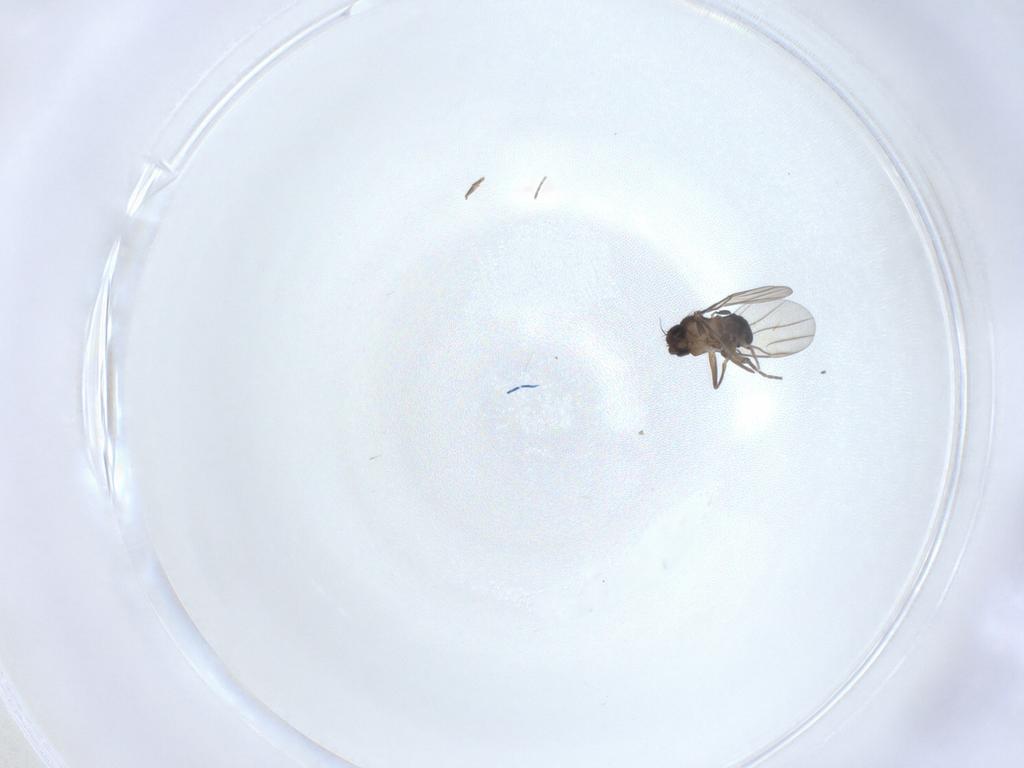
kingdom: Animalia
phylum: Arthropoda
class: Insecta
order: Diptera
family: Phoridae
